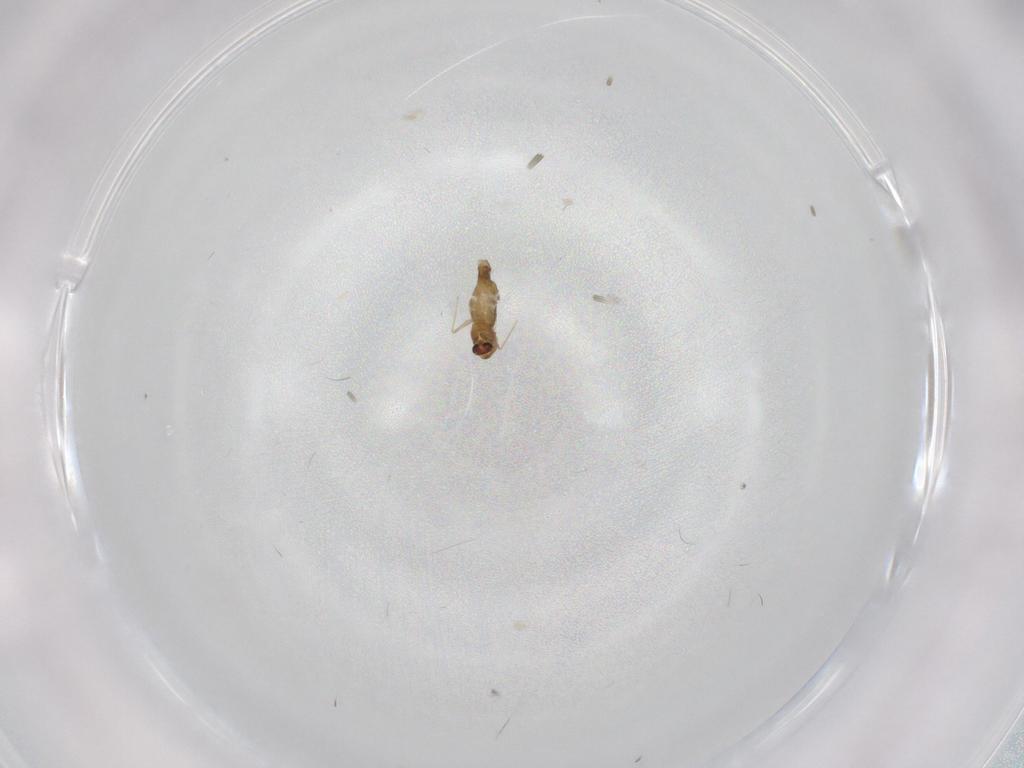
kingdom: Animalia
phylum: Arthropoda
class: Insecta
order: Diptera
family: Chironomidae
